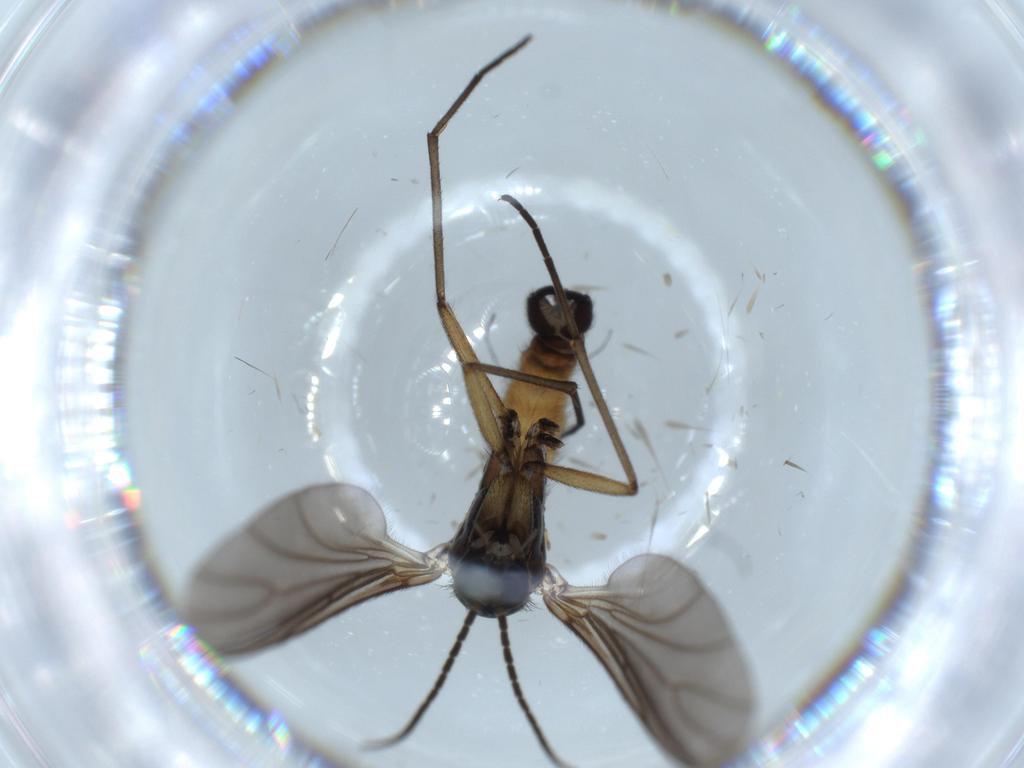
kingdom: Animalia
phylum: Arthropoda
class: Insecta
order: Diptera
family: Sciaridae
